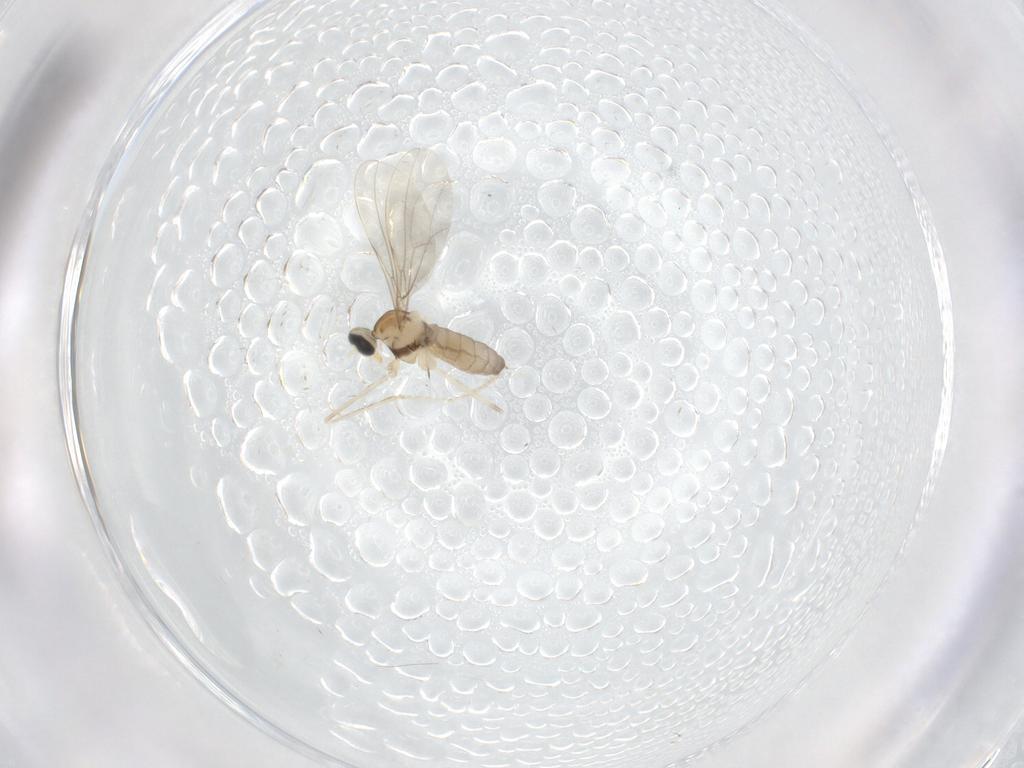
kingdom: Animalia
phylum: Arthropoda
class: Insecta
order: Diptera
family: Cecidomyiidae
